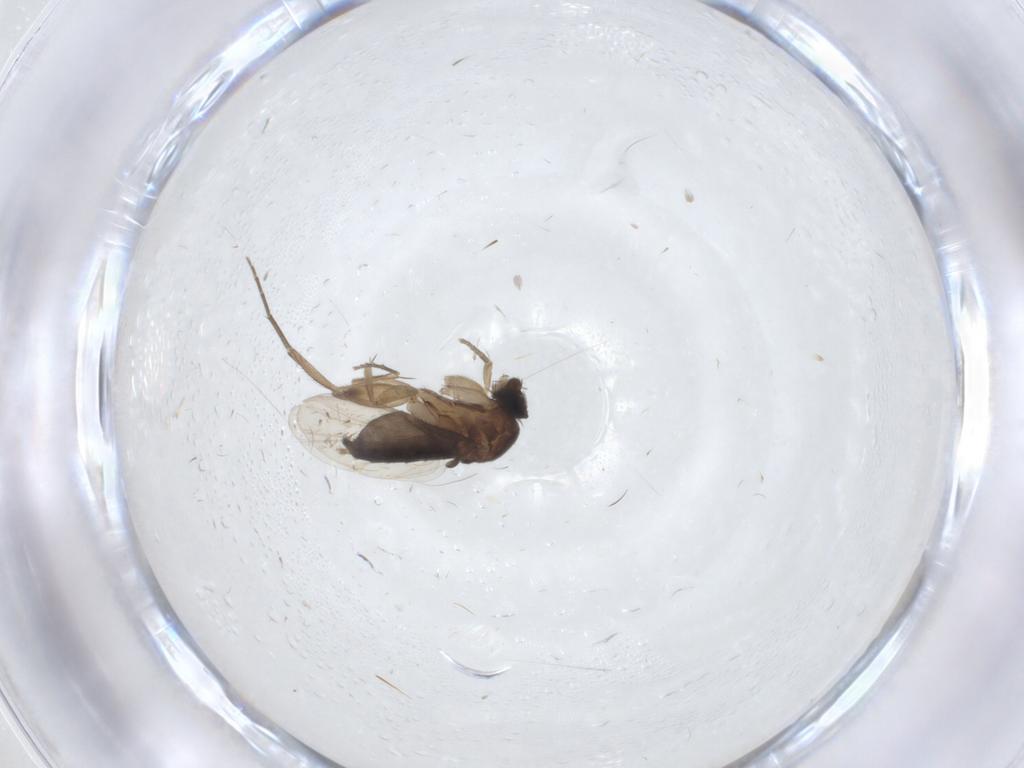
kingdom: Animalia
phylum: Arthropoda
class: Insecta
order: Diptera
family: Phoridae
